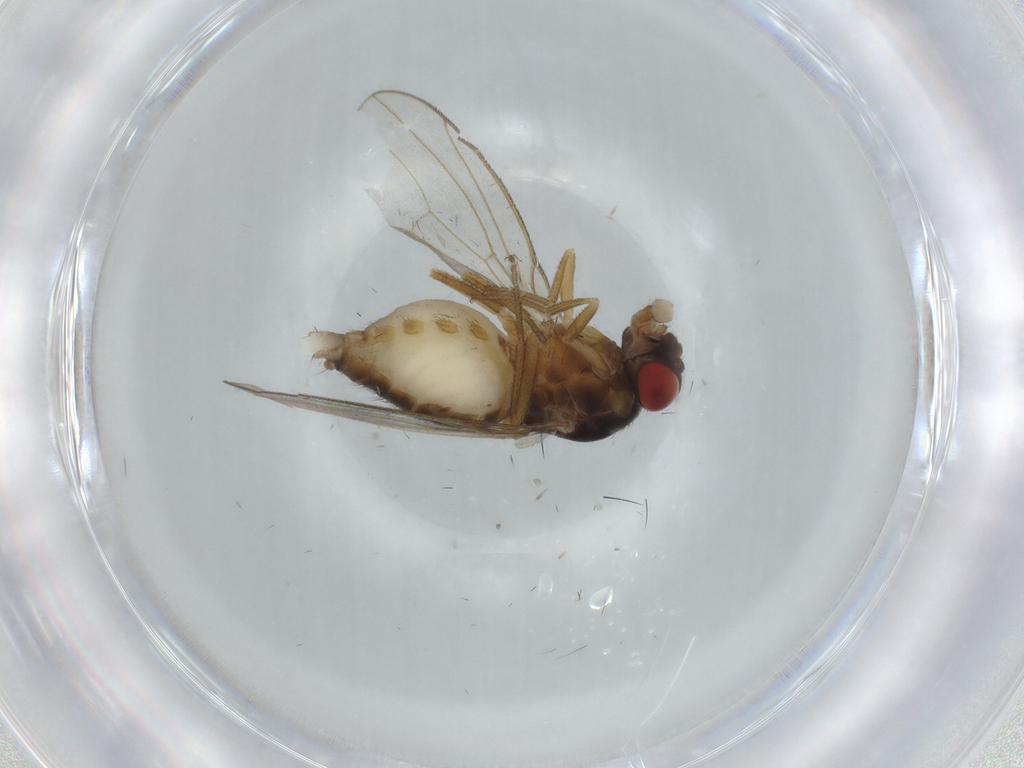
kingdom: Animalia
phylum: Arthropoda
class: Insecta
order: Diptera
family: Drosophilidae
